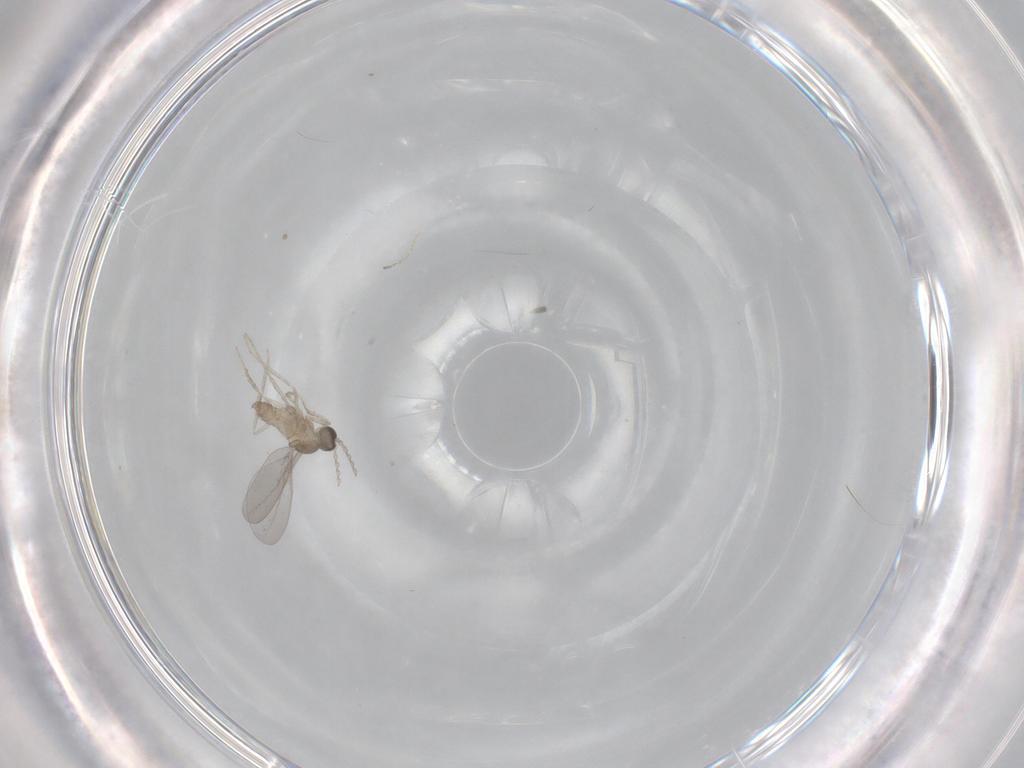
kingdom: Animalia
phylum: Arthropoda
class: Insecta
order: Diptera
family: Cecidomyiidae
